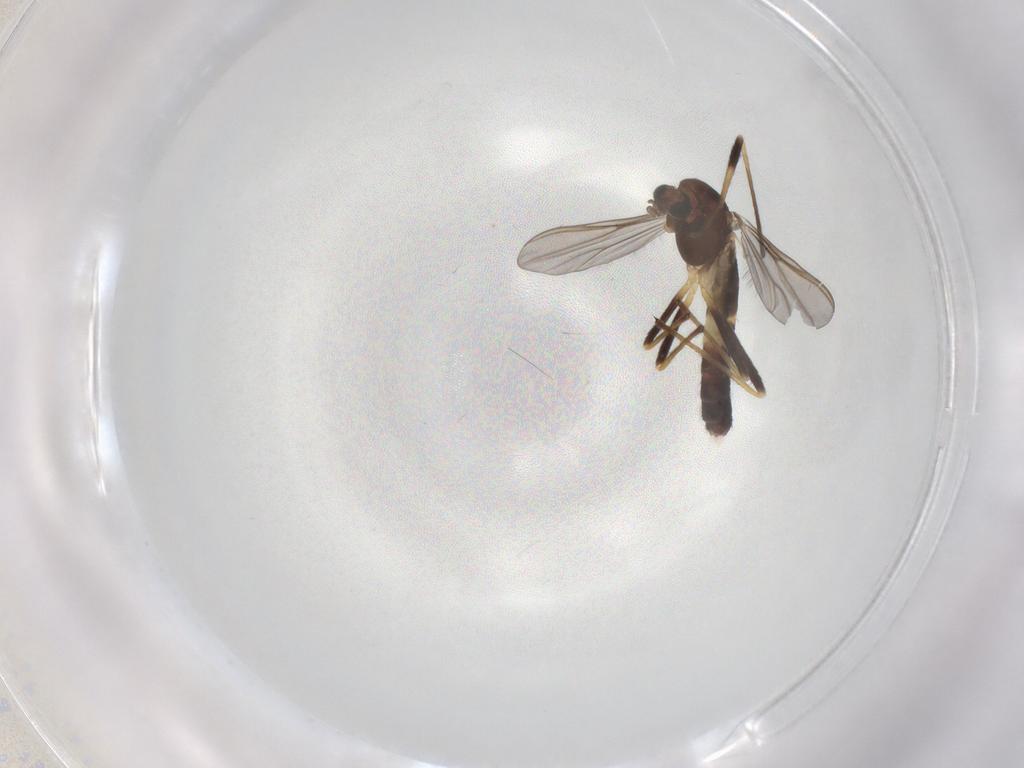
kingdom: Animalia
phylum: Arthropoda
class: Insecta
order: Diptera
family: Chironomidae
